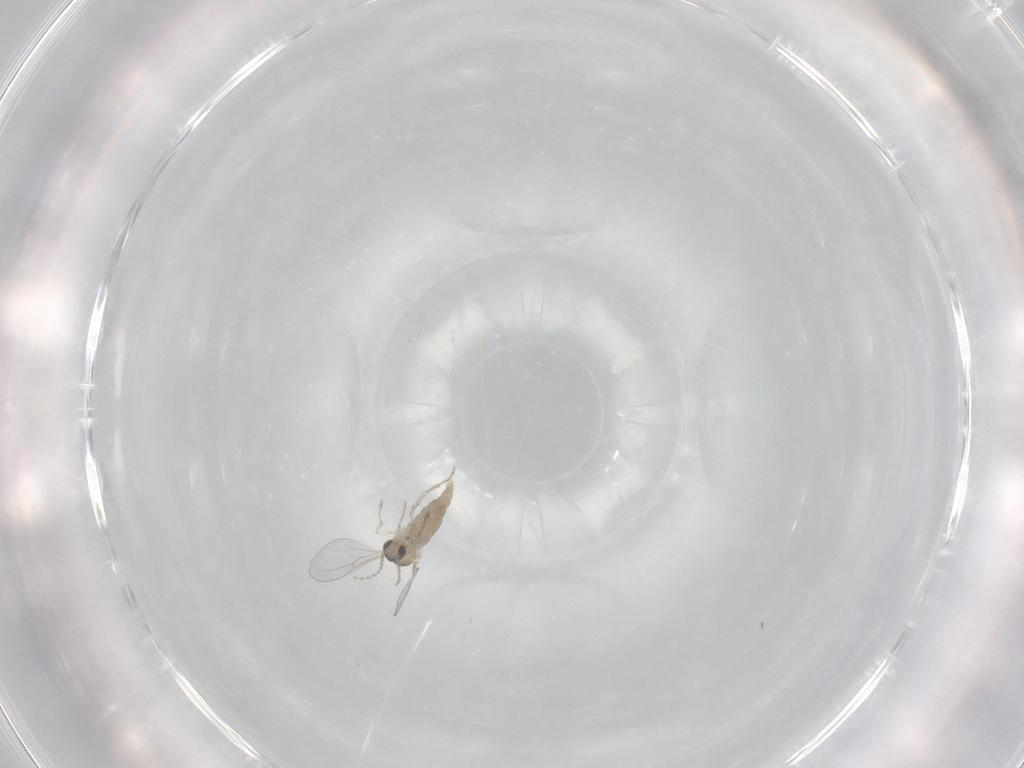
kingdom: Animalia
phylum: Arthropoda
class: Insecta
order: Diptera
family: Cecidomyiidae
